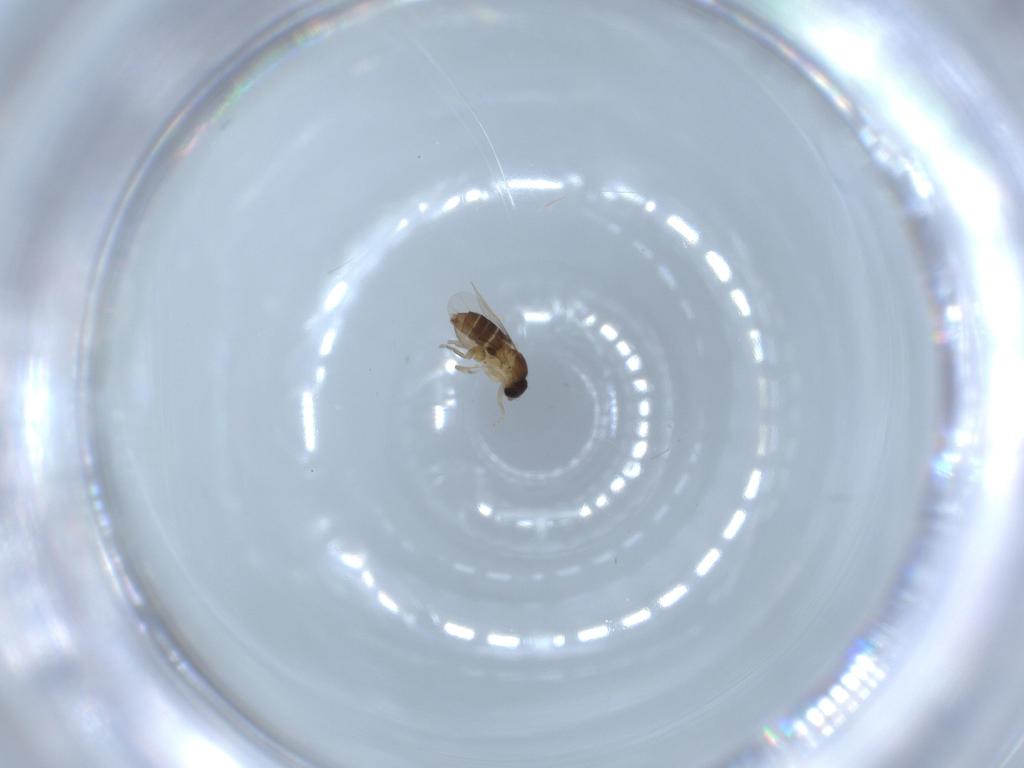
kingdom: Animalia
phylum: Arthropoda
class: Insecta
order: Diptera
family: Phoridae
